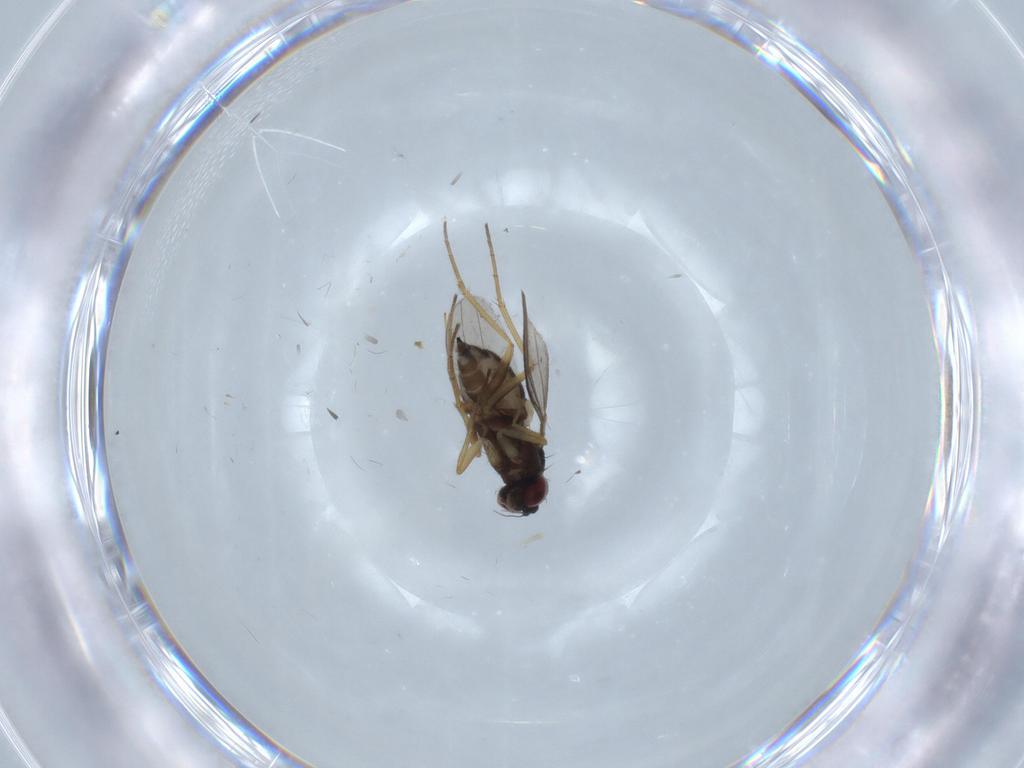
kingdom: Animalia
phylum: Arthropoda
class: Insecta
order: Diptera
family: Dolichopodidae
